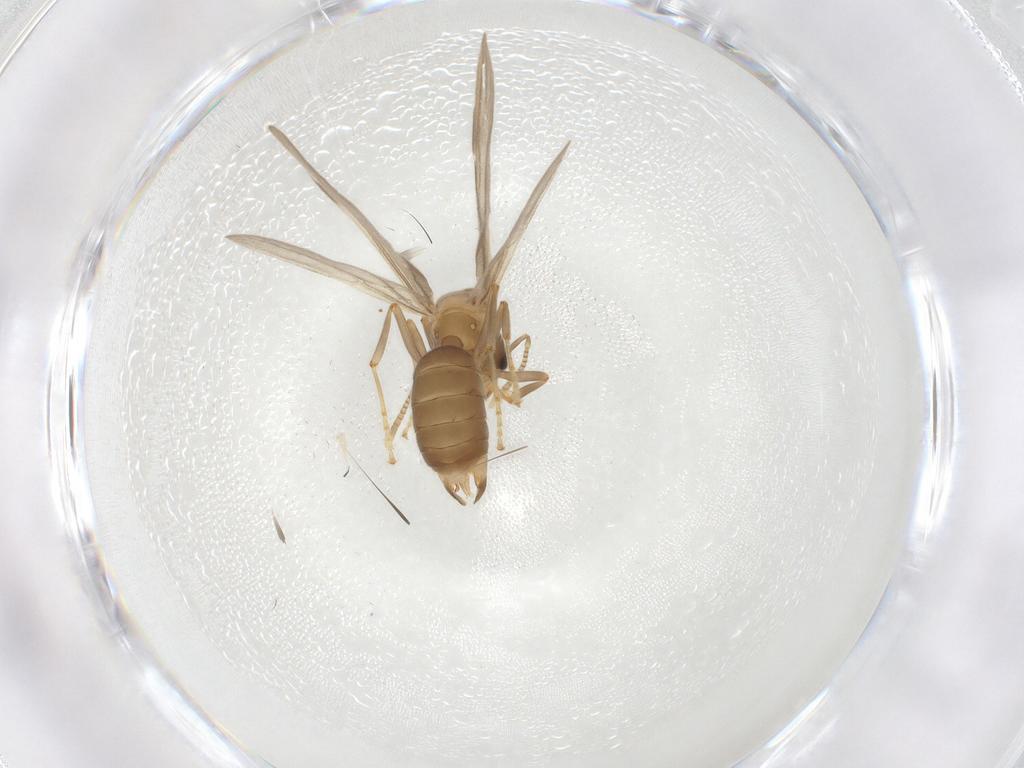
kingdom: Animalia
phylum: Arthropoda
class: Insecta
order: Hymenoptera
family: Formicidae
